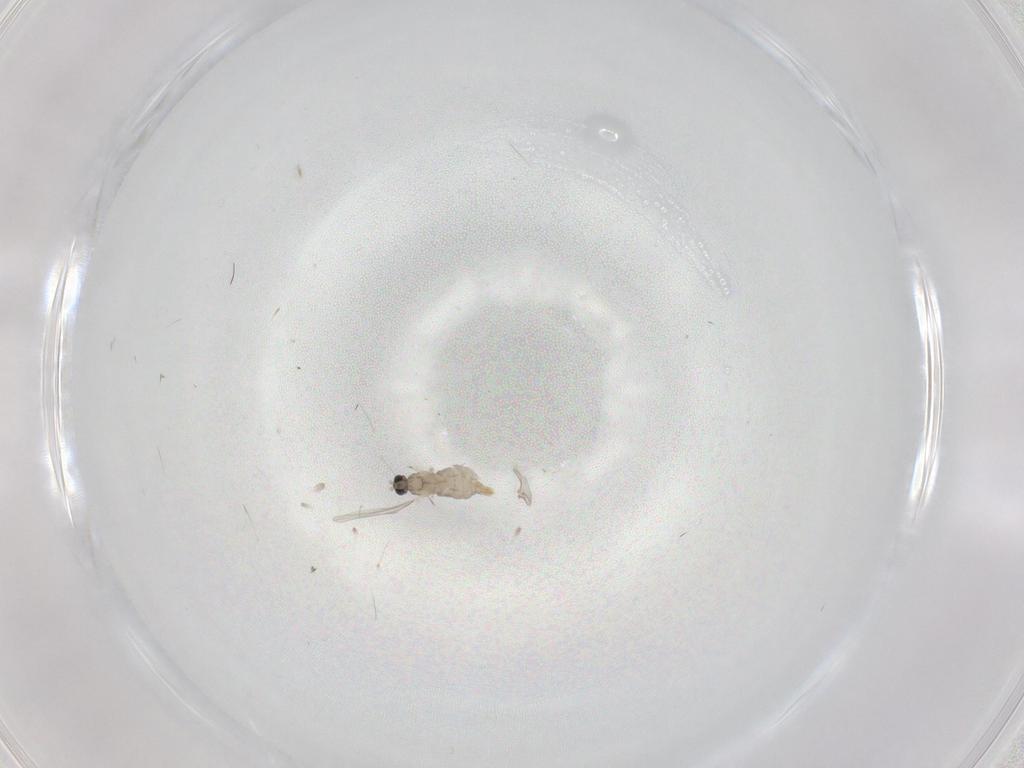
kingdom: Animalia
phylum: Arthropoda
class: Insecta
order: Diptera
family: Cecidomyiidae
